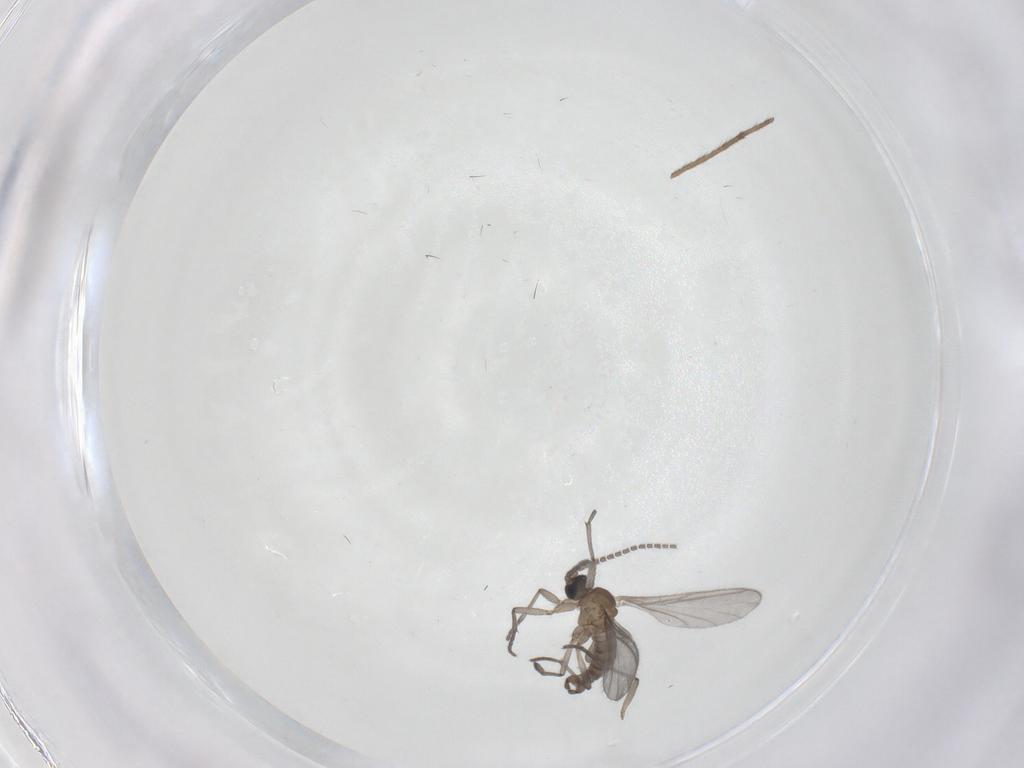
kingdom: Animalia
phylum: Arthropoda
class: Insecta
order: Diptera
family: Sciaridae
